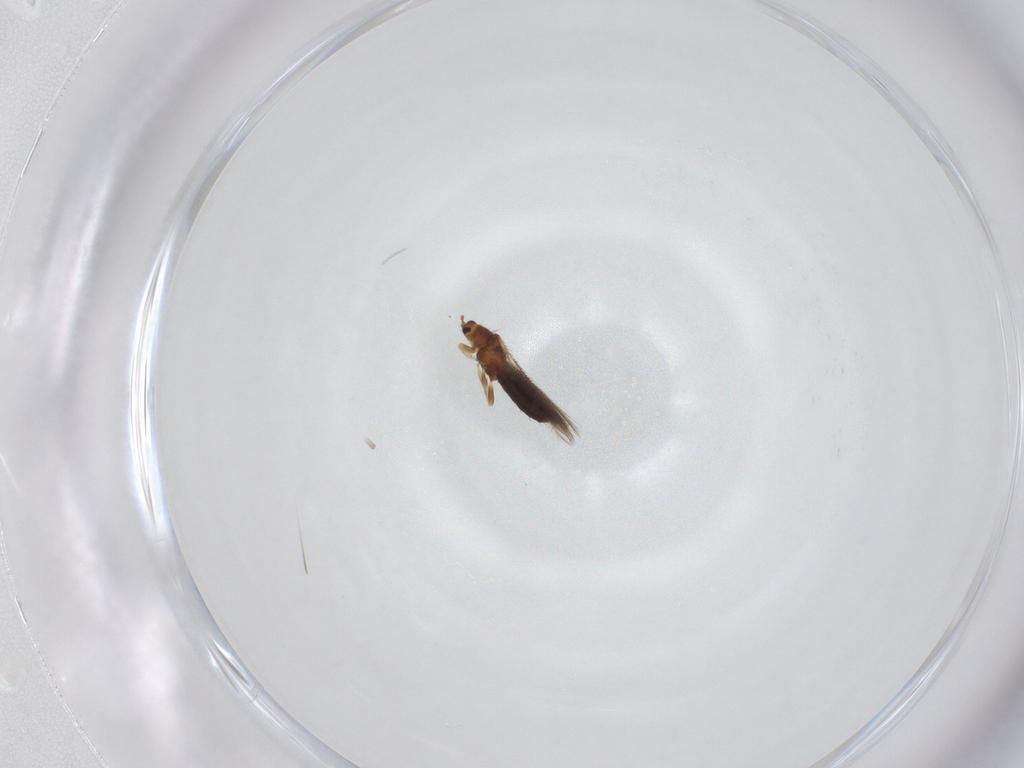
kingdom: Animalia
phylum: Arthropoda
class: Insecta
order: Thysanoptera
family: Thripidae
